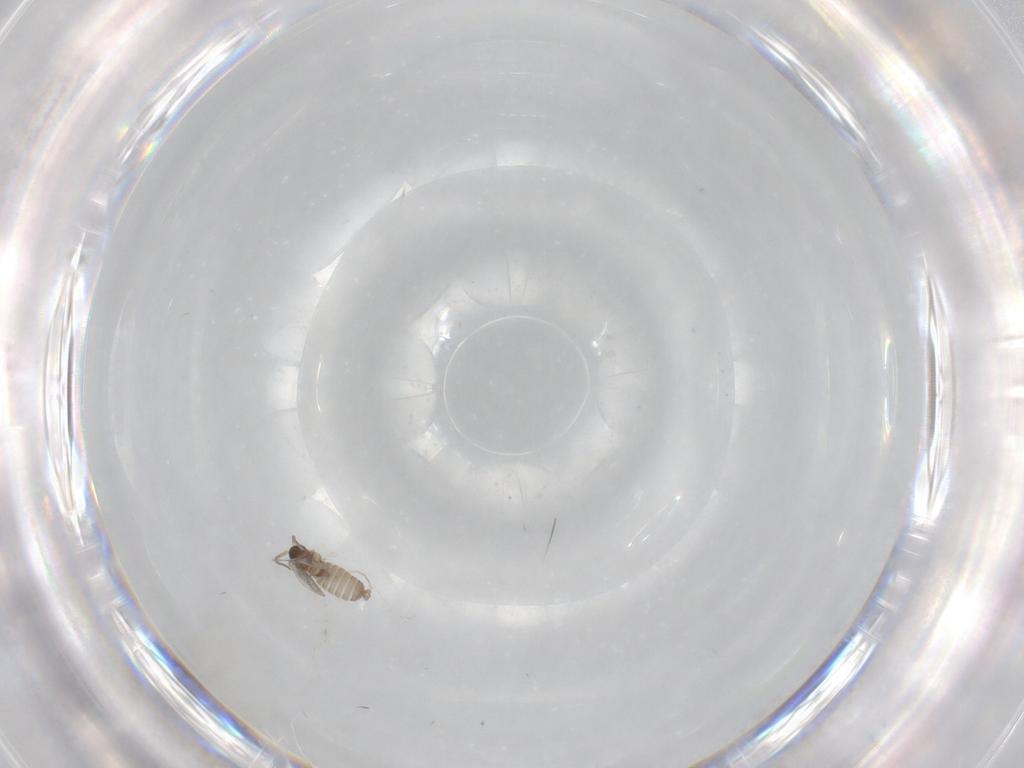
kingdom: Animalia
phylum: Arthropoda
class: Insecta
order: Diptera
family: Cecidomyiidae
